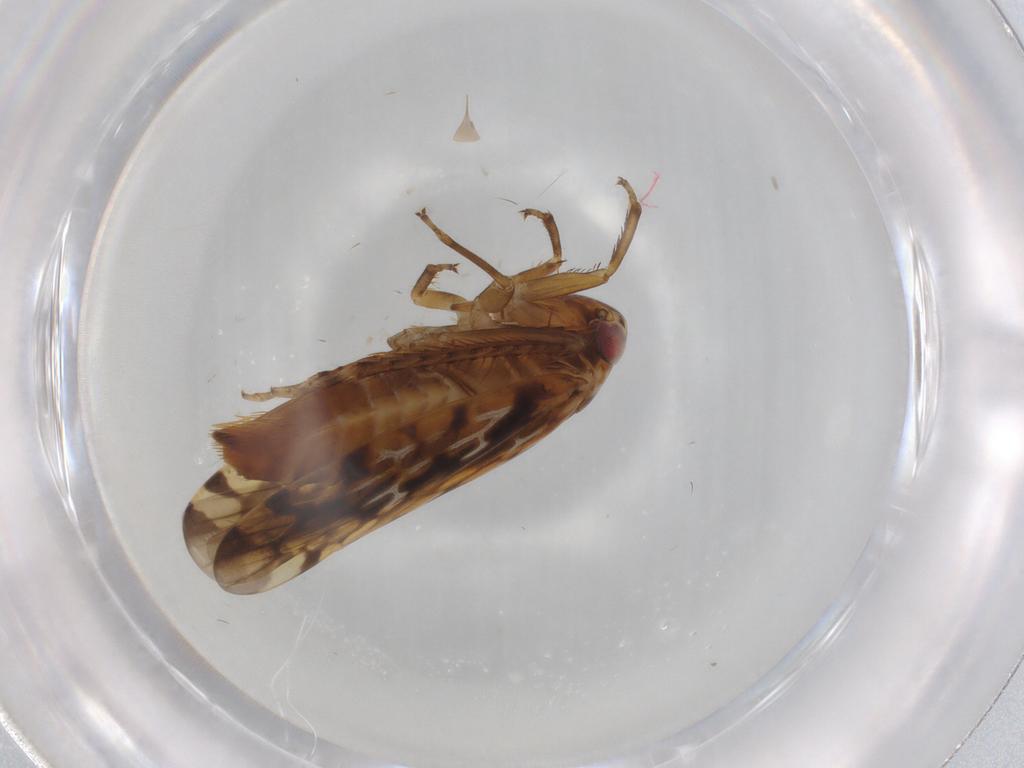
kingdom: Animalia
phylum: Arthropoda
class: Insecta
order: Hemiptera
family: Cicadellidae
